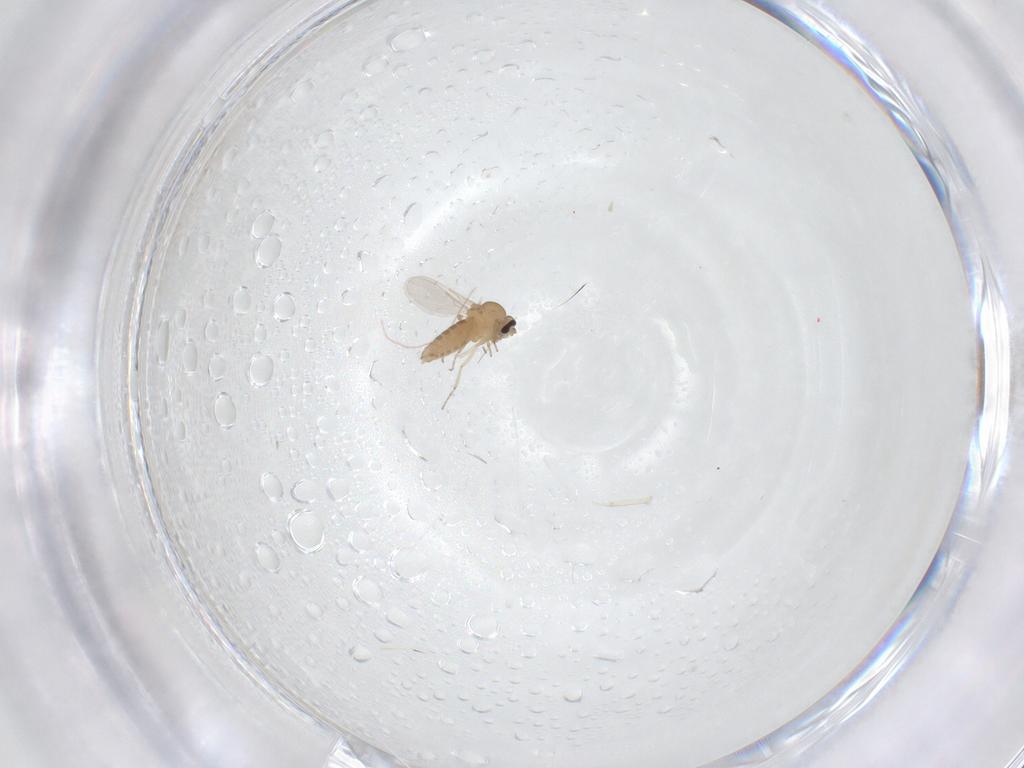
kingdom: Animalia
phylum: Arthropoda
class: Insecta
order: Diptera
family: Ceratopogonidae
